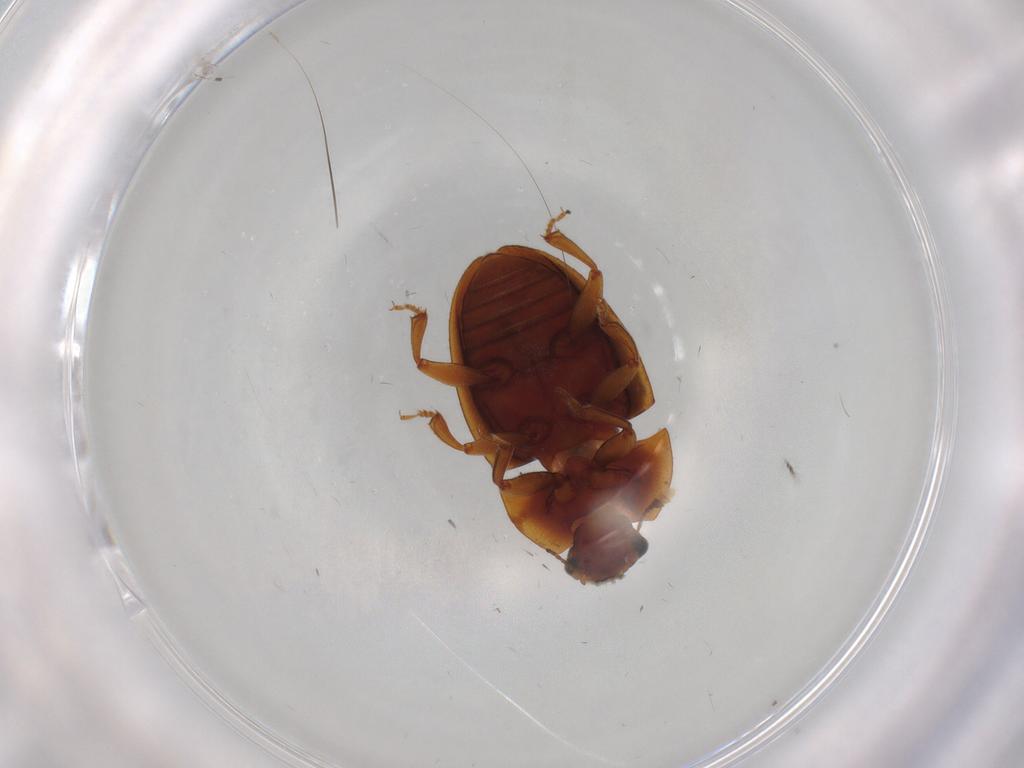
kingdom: Animalia
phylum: Arthropoda
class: Insecta
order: Coleoptera
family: Nitidulidae
